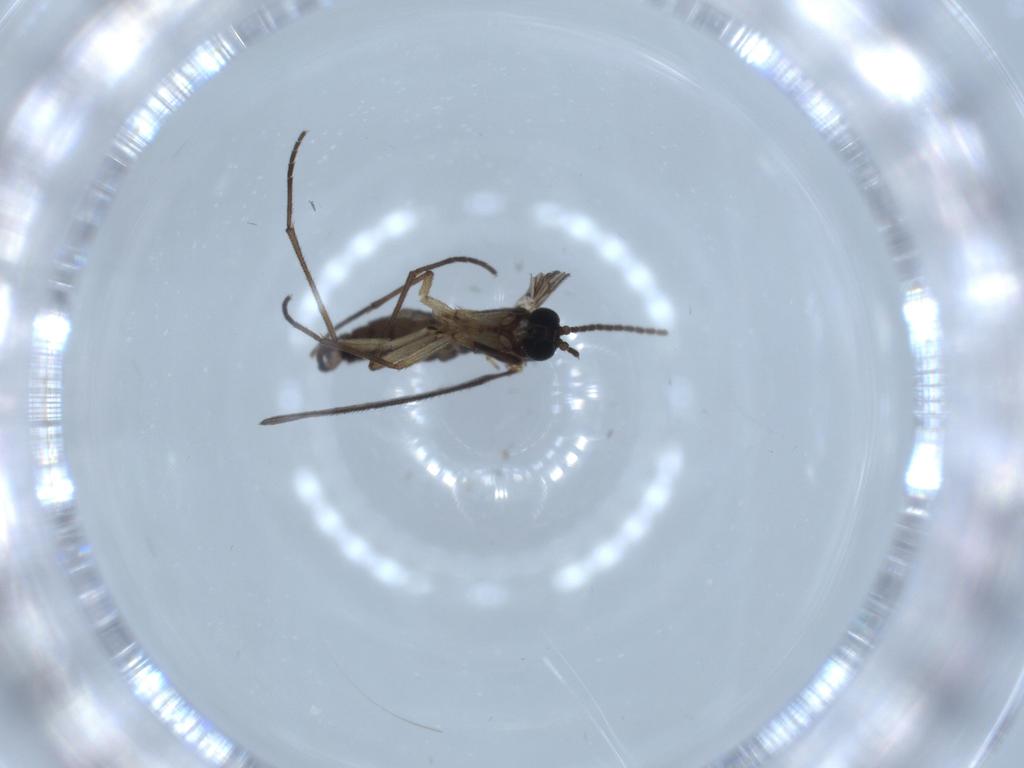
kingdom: Animalia
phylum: Arthropoda
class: Insecta
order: Diptera
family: Sciaridae
